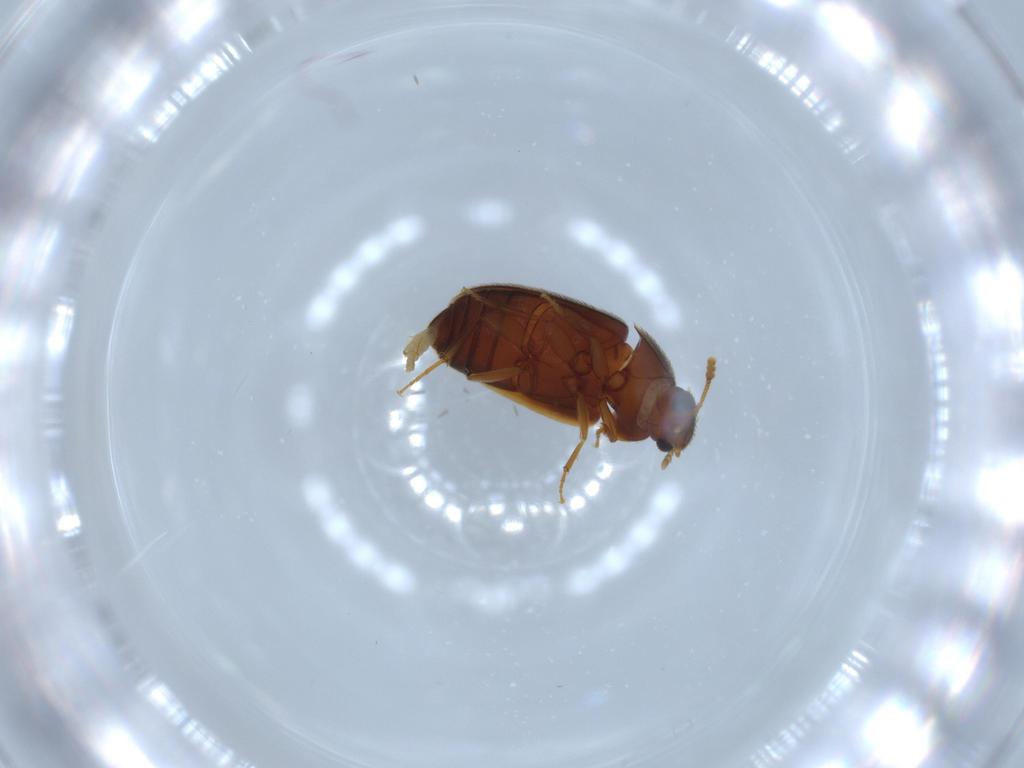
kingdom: Animalia
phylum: Arthropoda
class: Insecta
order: Coleoptera
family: Mycetophagidae
